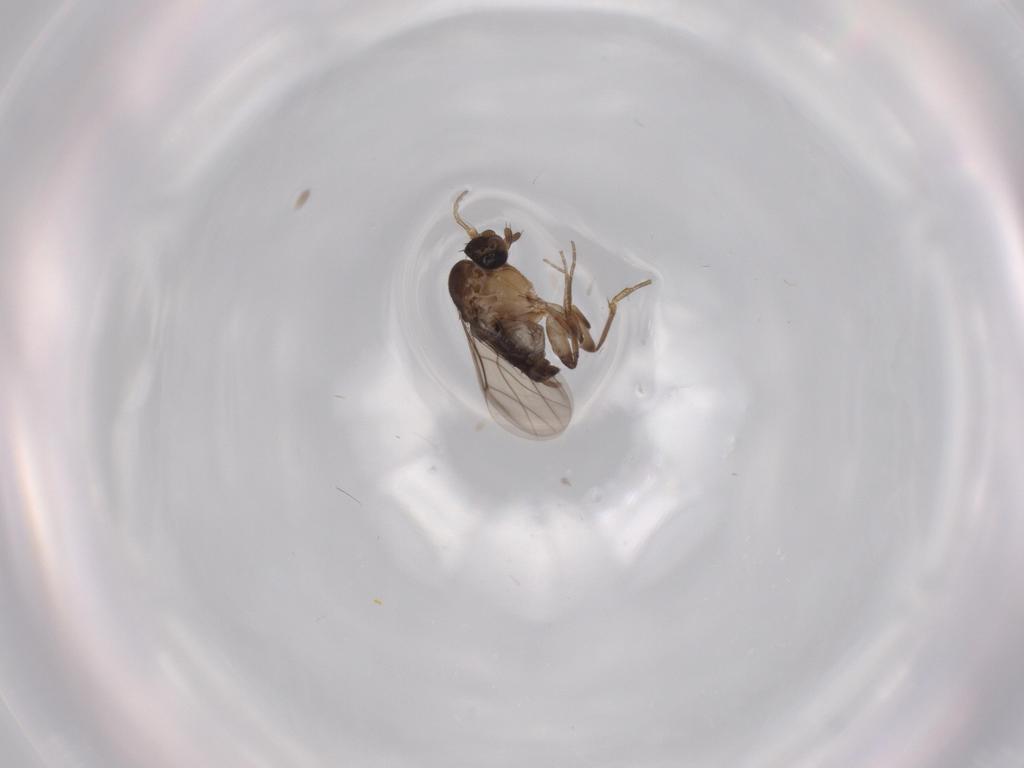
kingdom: Animalia
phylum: Arthropoda
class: Insecta
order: Diptera
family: Phoridae
